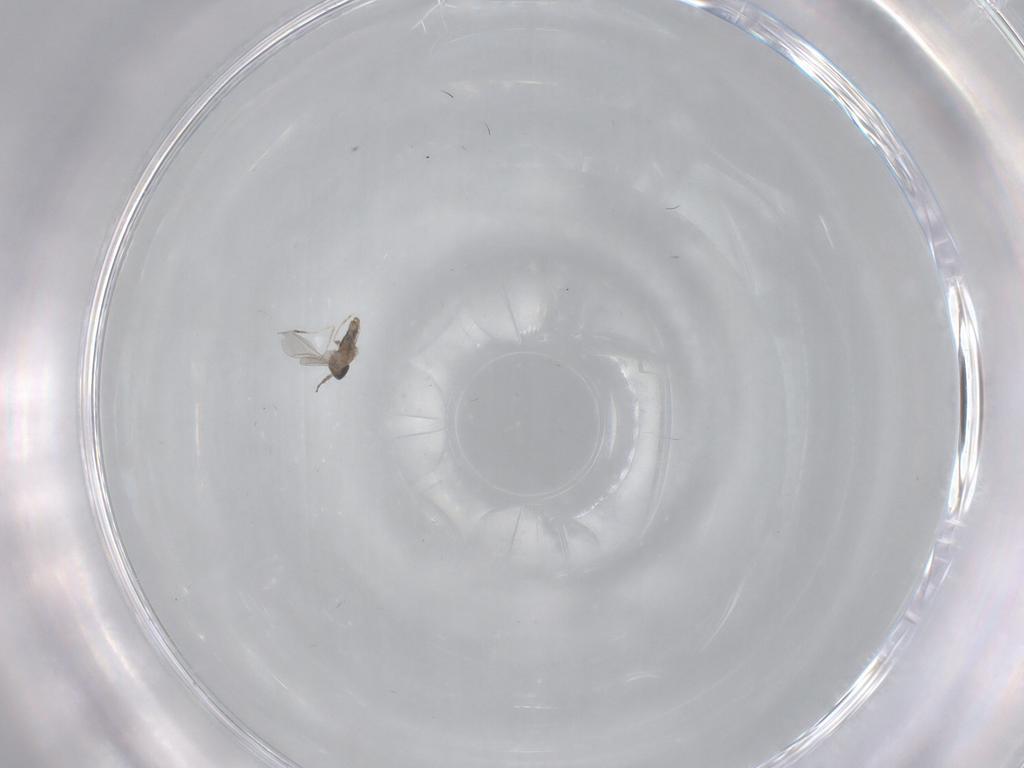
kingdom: Animalia
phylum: Arthropoda
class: Insecta
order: Diptera
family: Cecidomyiidae
